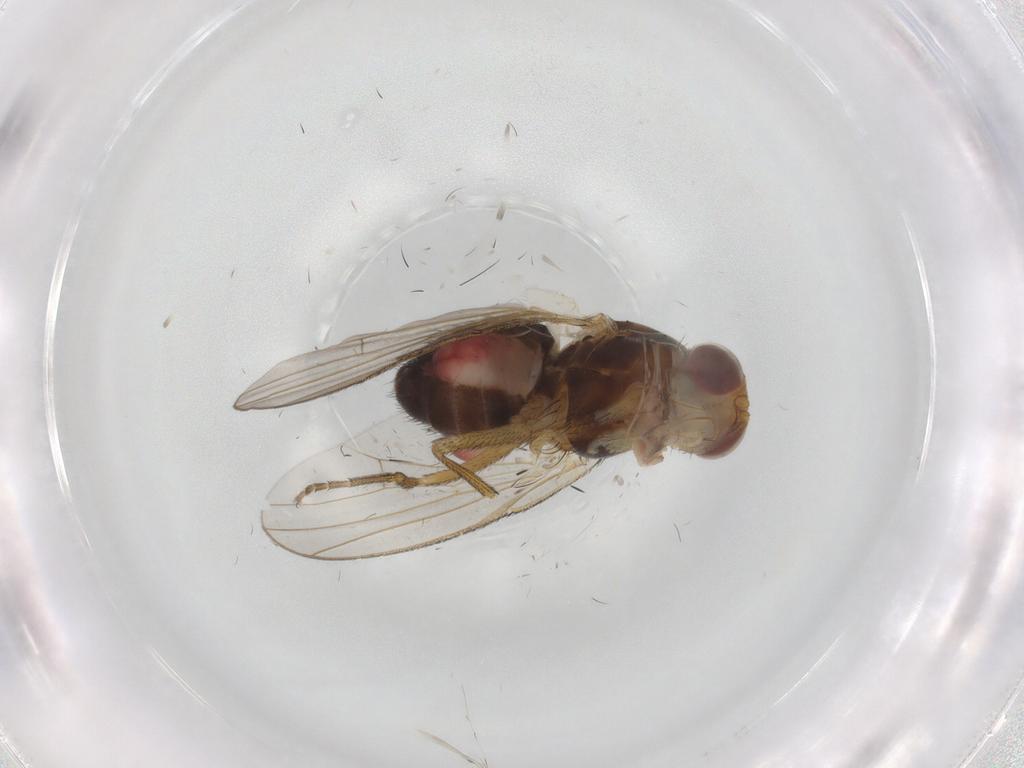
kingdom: Animalia
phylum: Arthropoda
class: Insecta
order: Diptera
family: Heleomyzidae
